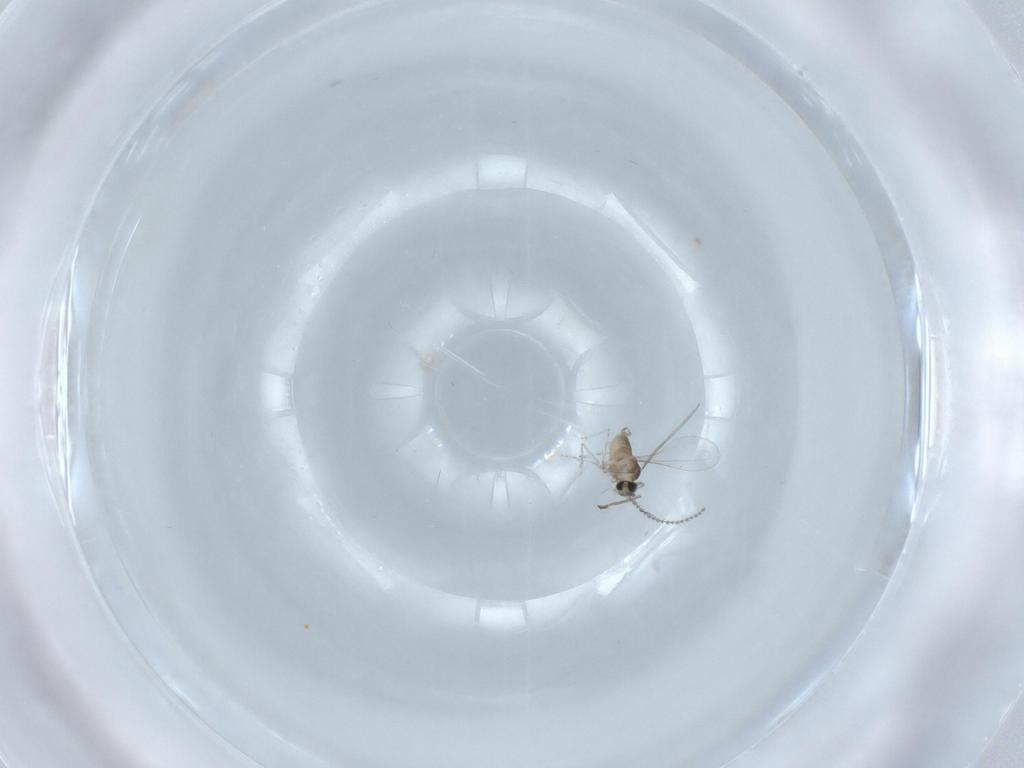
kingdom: Animalia
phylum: Arthropoda
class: Insecta
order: Diptera
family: Cecidomyiidae
